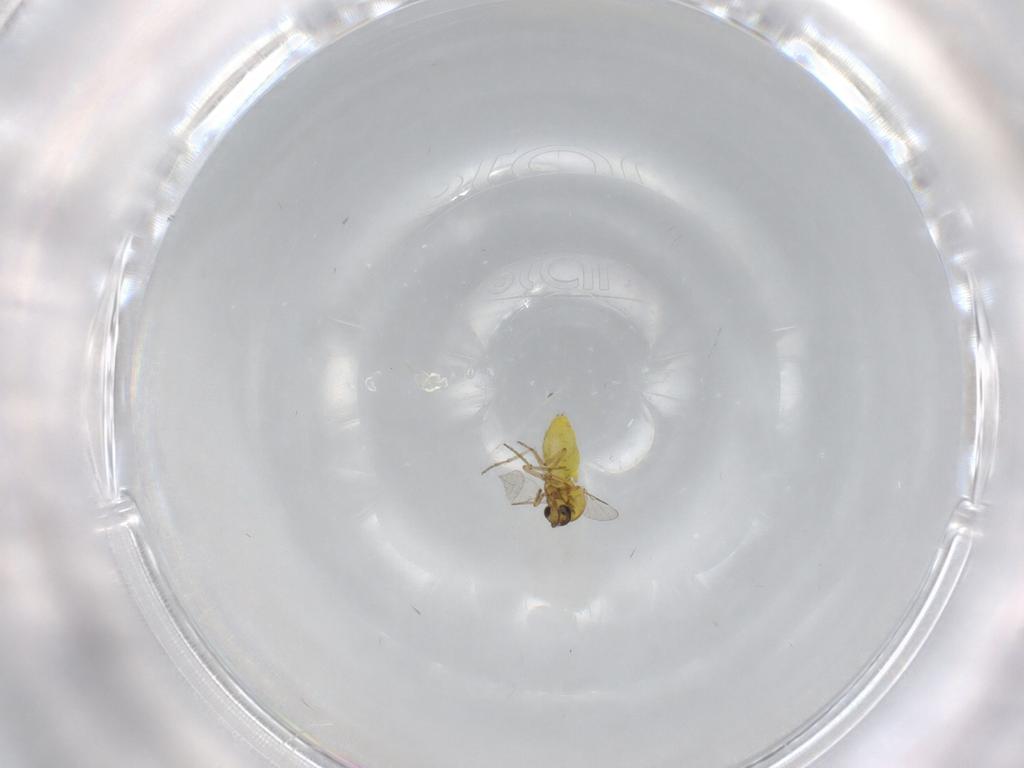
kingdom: Animalia
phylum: Arthropoda
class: Insecta
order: Diptera
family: Ceratopogonidae
